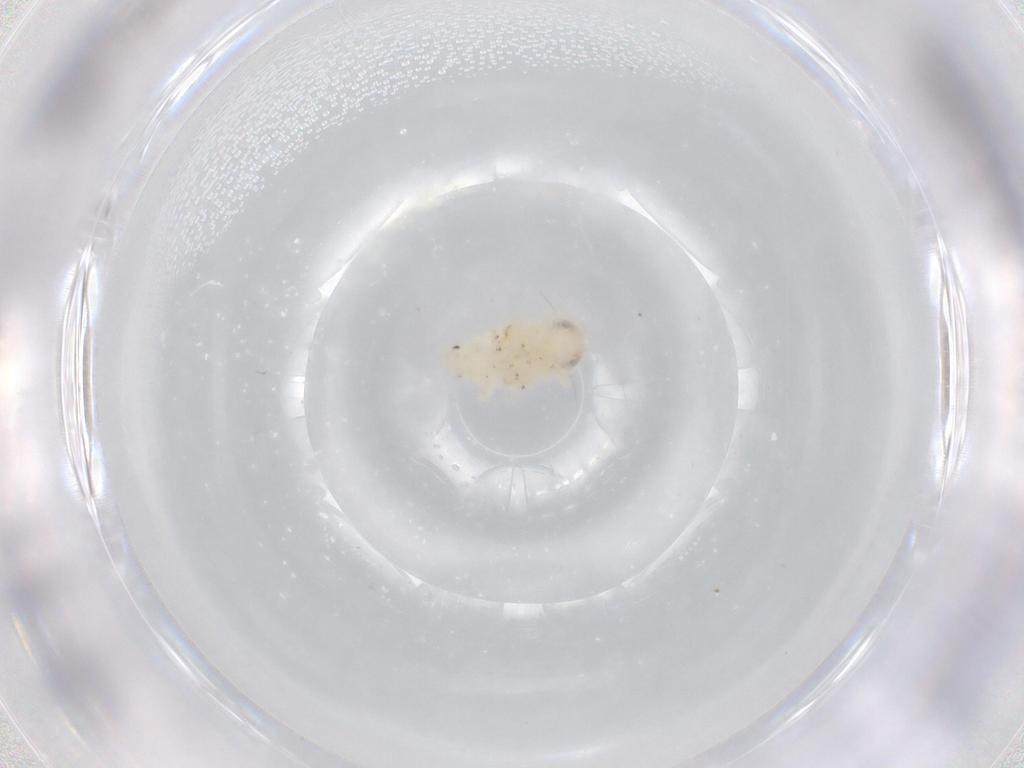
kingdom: Animalia
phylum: Arthropoda
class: Insecta
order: Hemiptera
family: Nogodinidae
